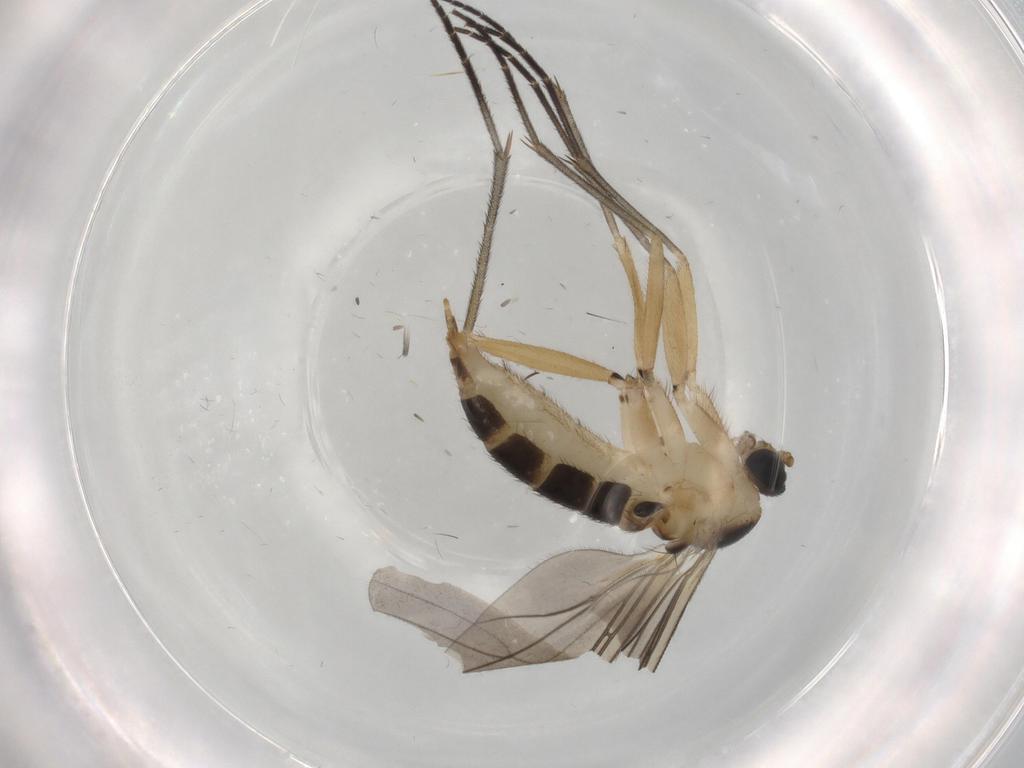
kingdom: Animalia
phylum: Arthropoda
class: Insecta
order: Diptera
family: Sciaridae
